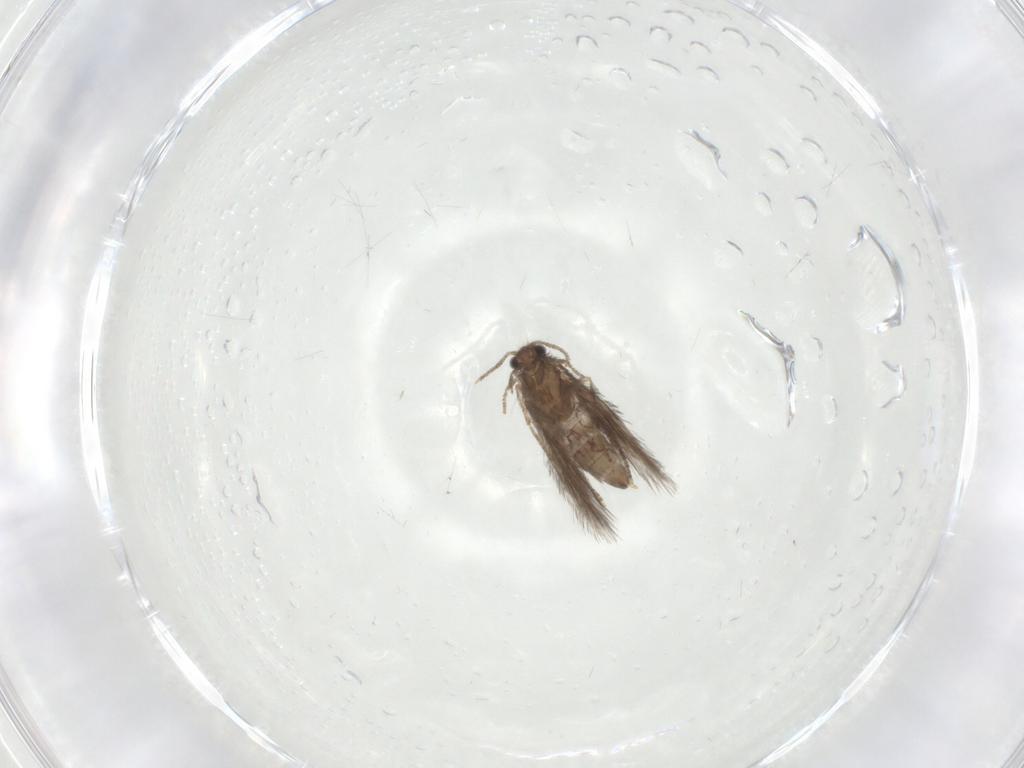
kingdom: Animalia
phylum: Arthropoda
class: Insecta
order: Trichoptera
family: Hydroptilidae
